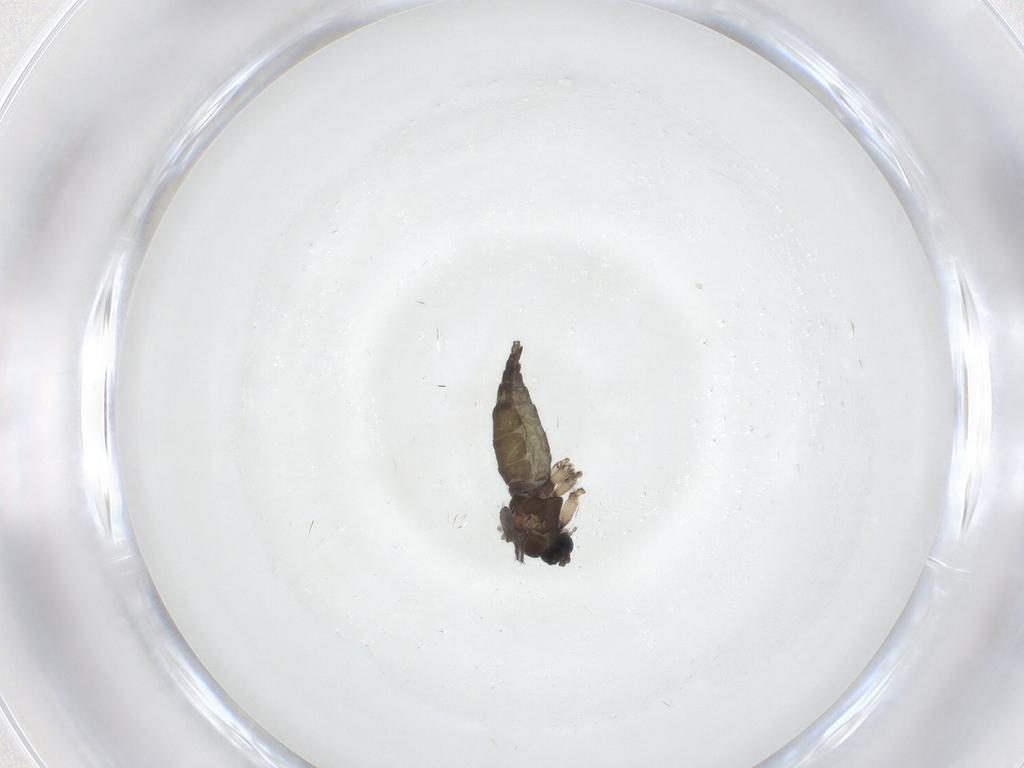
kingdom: Animalia
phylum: Arthropoda
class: Insecta
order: Diptera
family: Sciaridae
